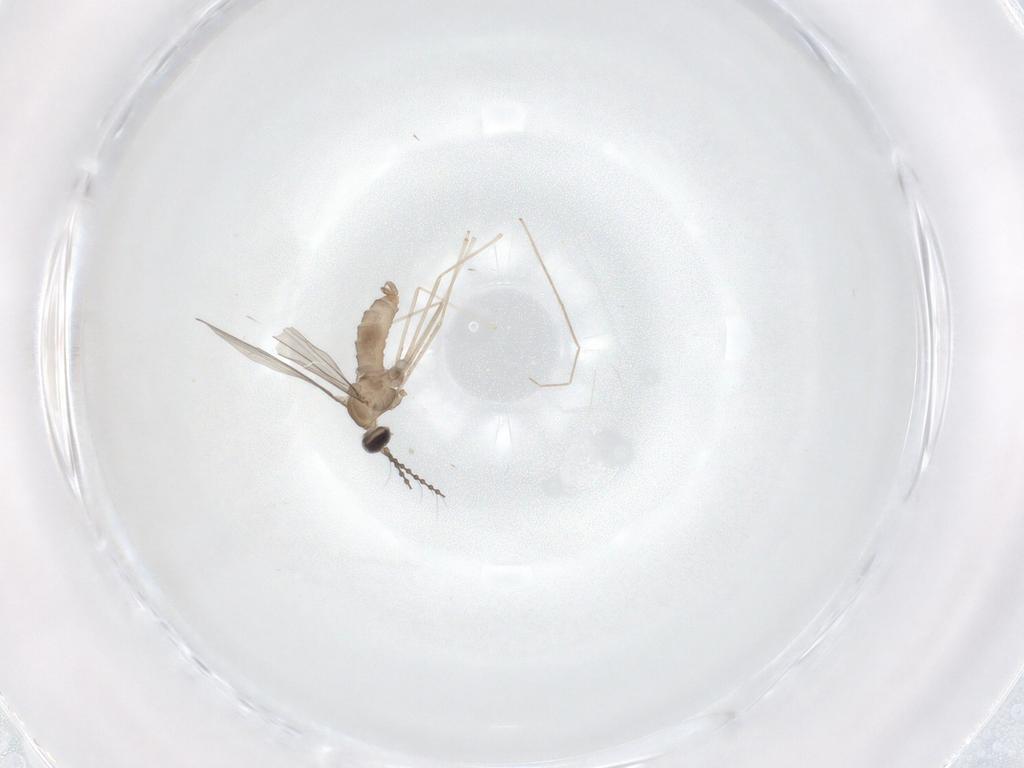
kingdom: Animalia
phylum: Arthropoda
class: Insecta
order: Diptera
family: Cecidomyiidae
